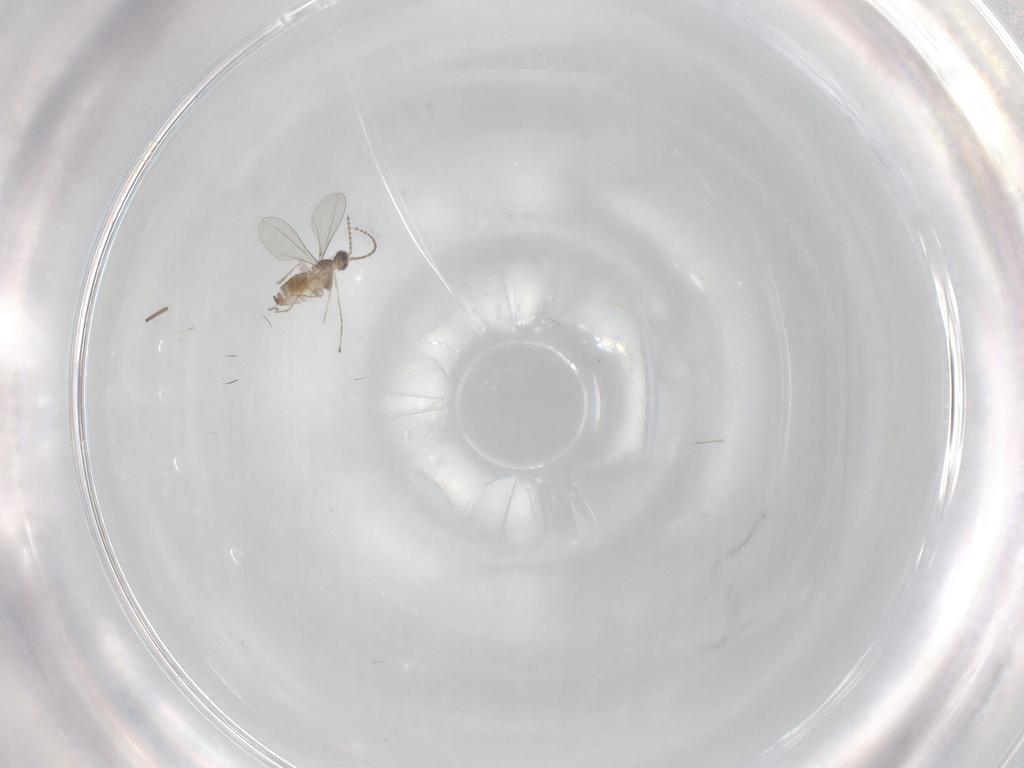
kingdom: Animalia
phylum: Arthropoda
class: Insecta
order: Diptera
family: Cecidomyiidae
